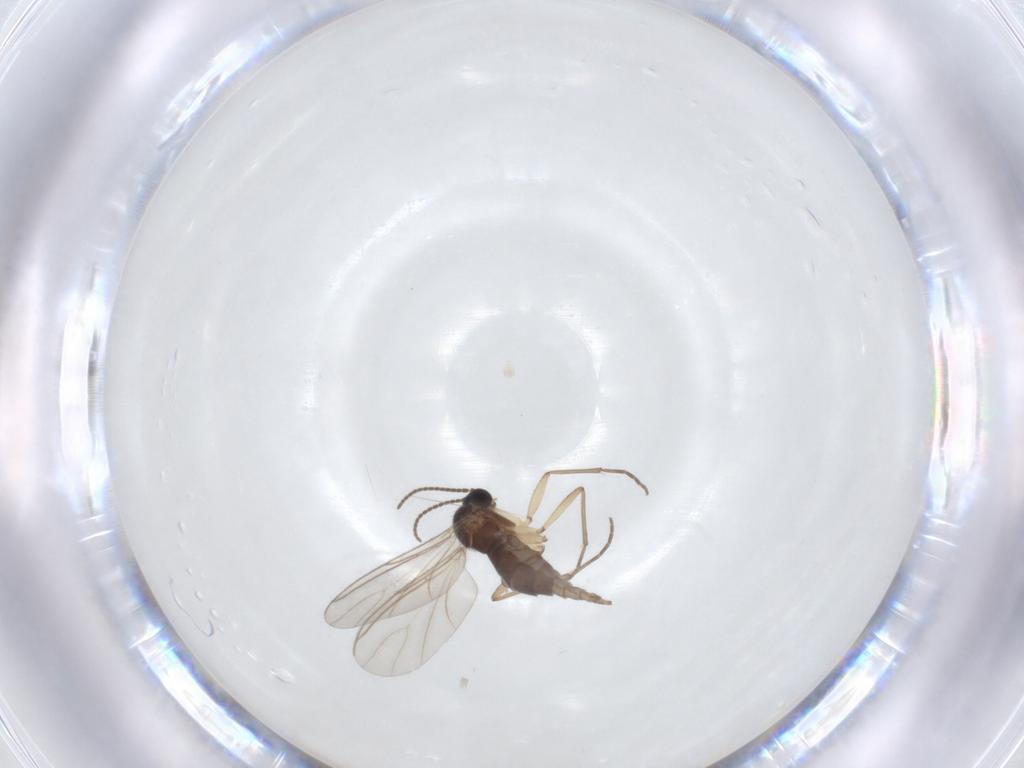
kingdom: Animalia
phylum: Arthropoda
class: Insecta
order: Diptera
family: Sciaridae
